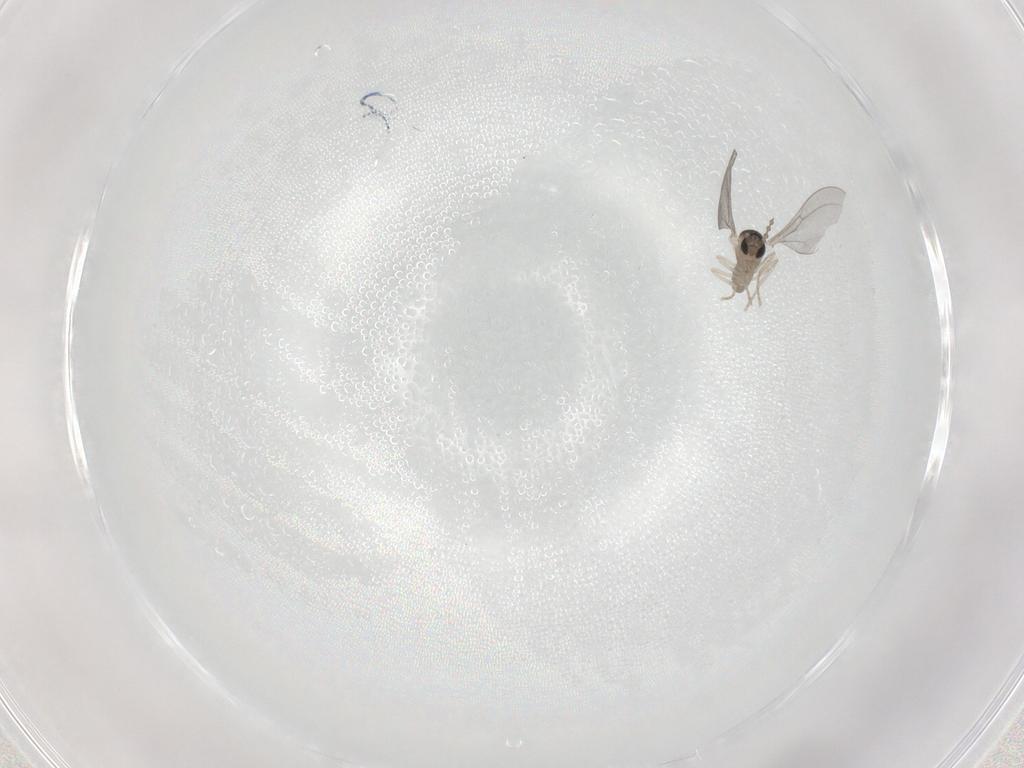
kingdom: Animalia
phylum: Arthropoda
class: Insecta
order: Diptera
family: Cecidomyiidae
